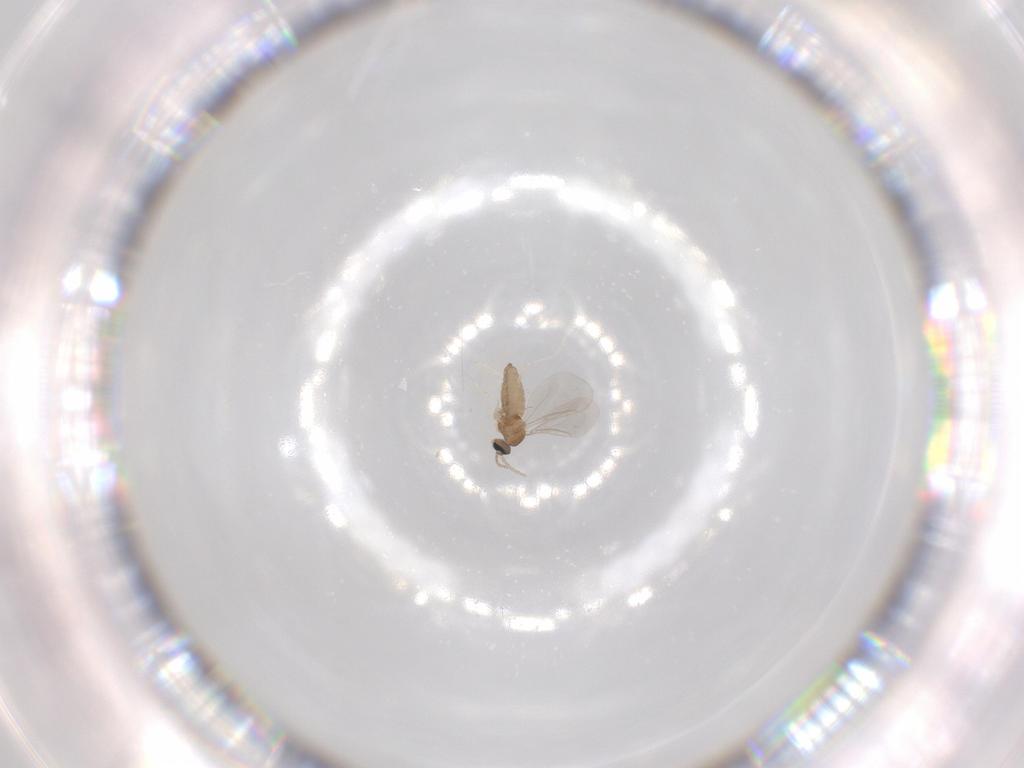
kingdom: Animalia
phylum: Arthropoda
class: Insecta
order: Diptera
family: Cecidomyiidae
